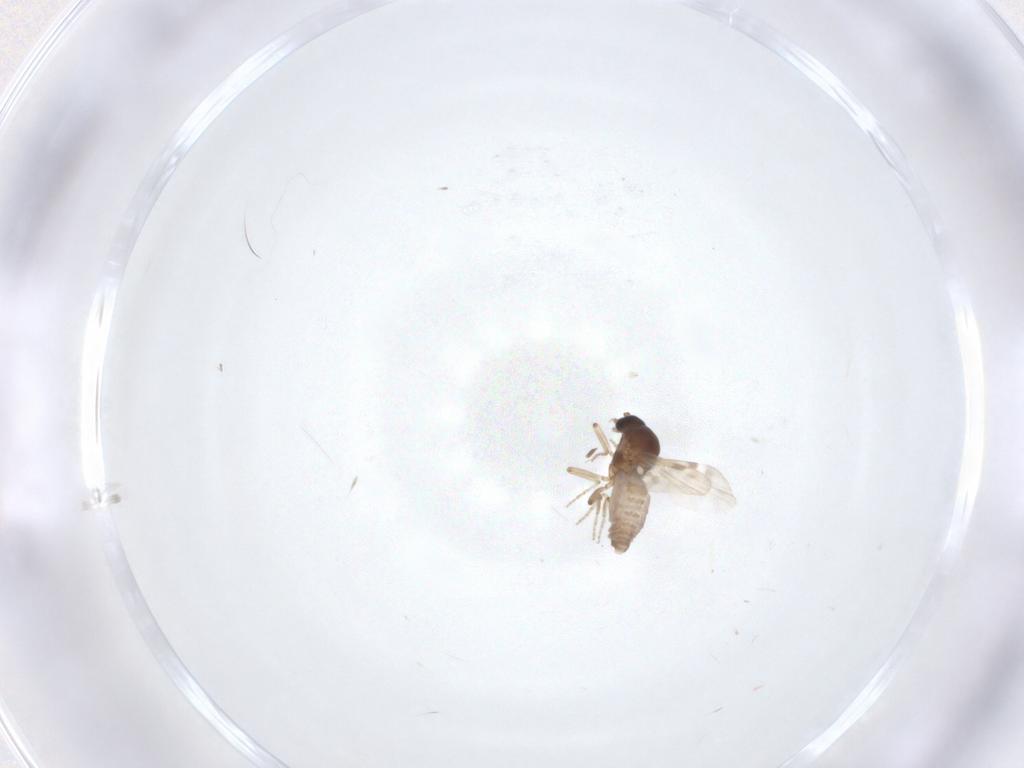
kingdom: Animalia
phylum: Arthropoda
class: Insecta
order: Diptera
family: Ceratopogonidae
